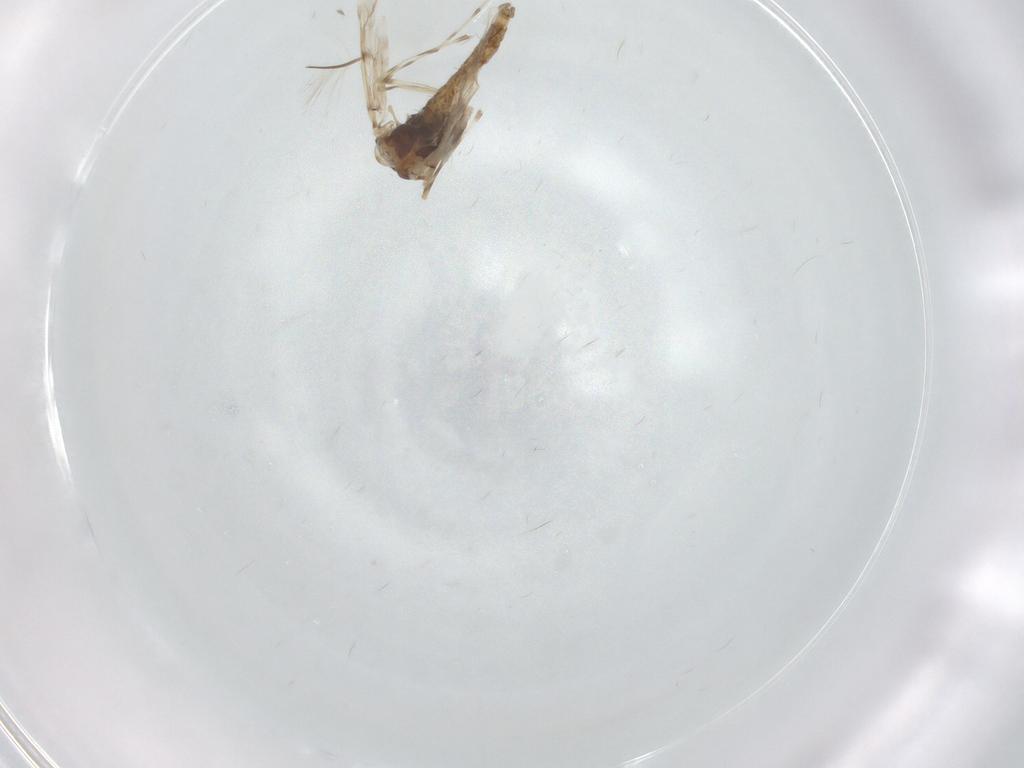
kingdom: Animalia
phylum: Arthropoda
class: Insecta
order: Diptera
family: Chironomidae
